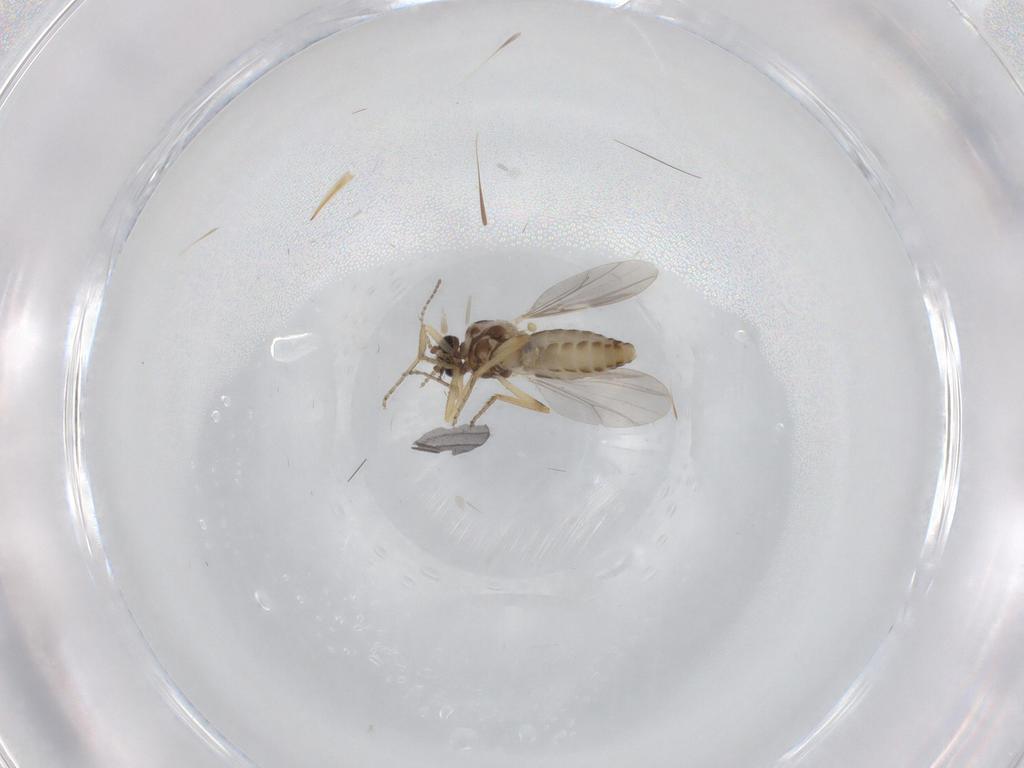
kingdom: Animalia
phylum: Arthropoda
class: Insecta
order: Diptera
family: Ceratopogonidae
